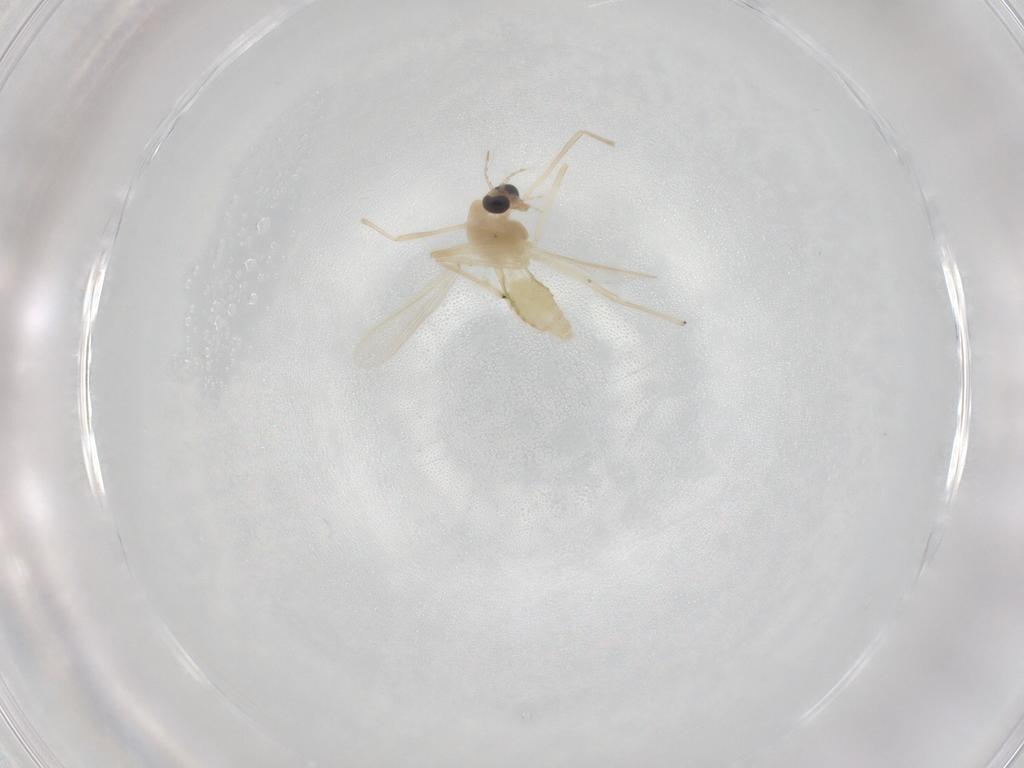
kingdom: Animalia
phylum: Arthropoda
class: Insecta
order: Diptera
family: Chironomidae
